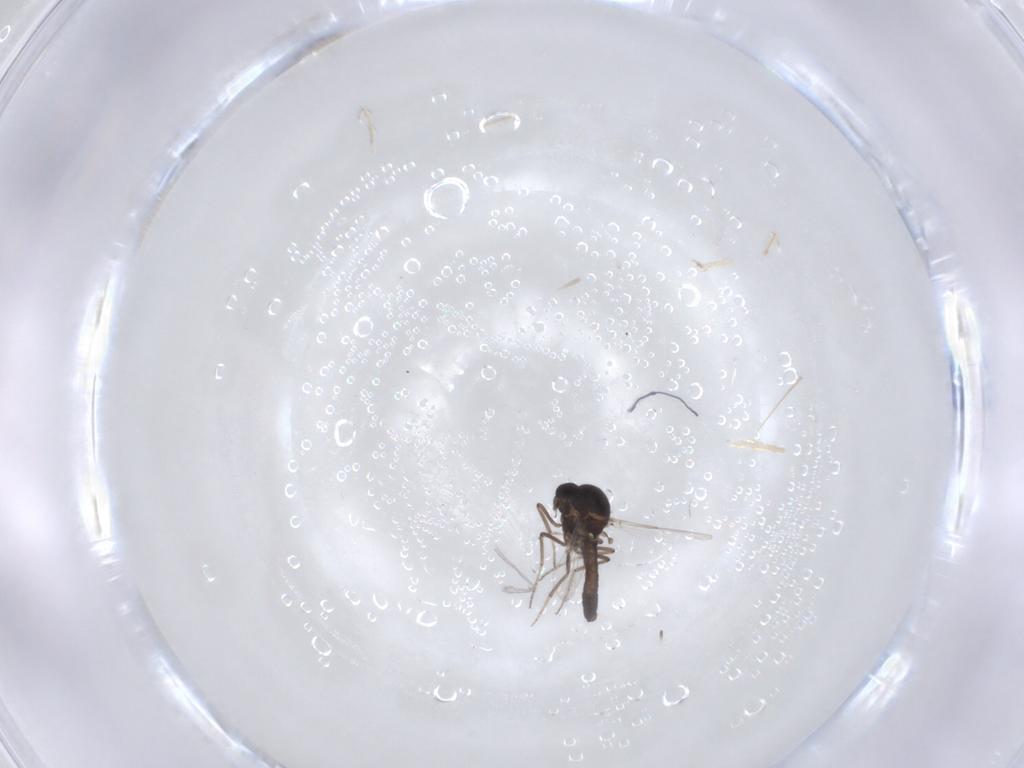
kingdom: Animalia
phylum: Arthropoda
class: Insecta
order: Diptera
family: Ceratopogonidae
